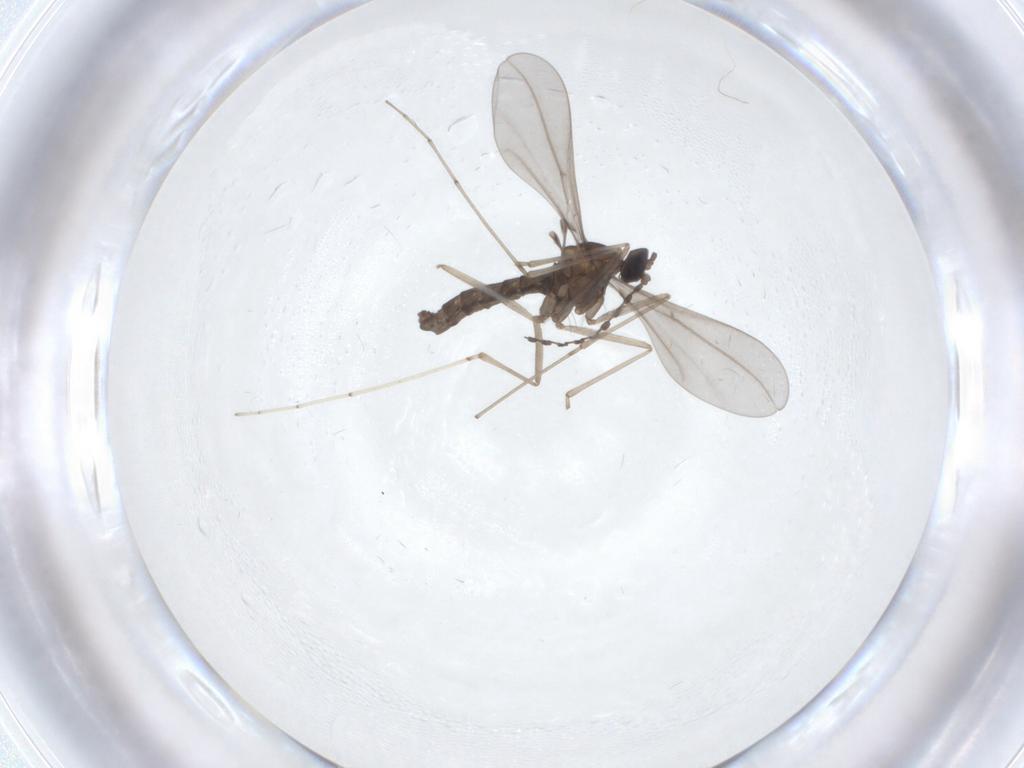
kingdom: Animalia
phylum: Arthropoda
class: Insecta
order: Diptera
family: Cecidomyiidae
